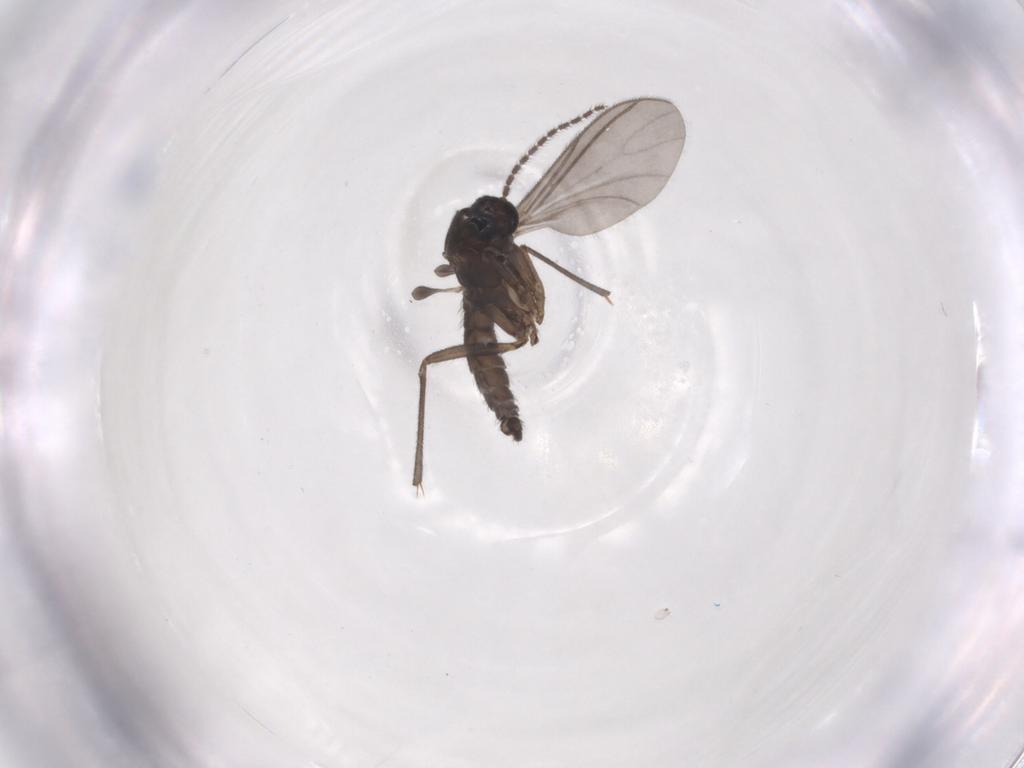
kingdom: Animalia
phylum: Arthropoda
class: Insecta
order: Diptera
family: Sciaridae
